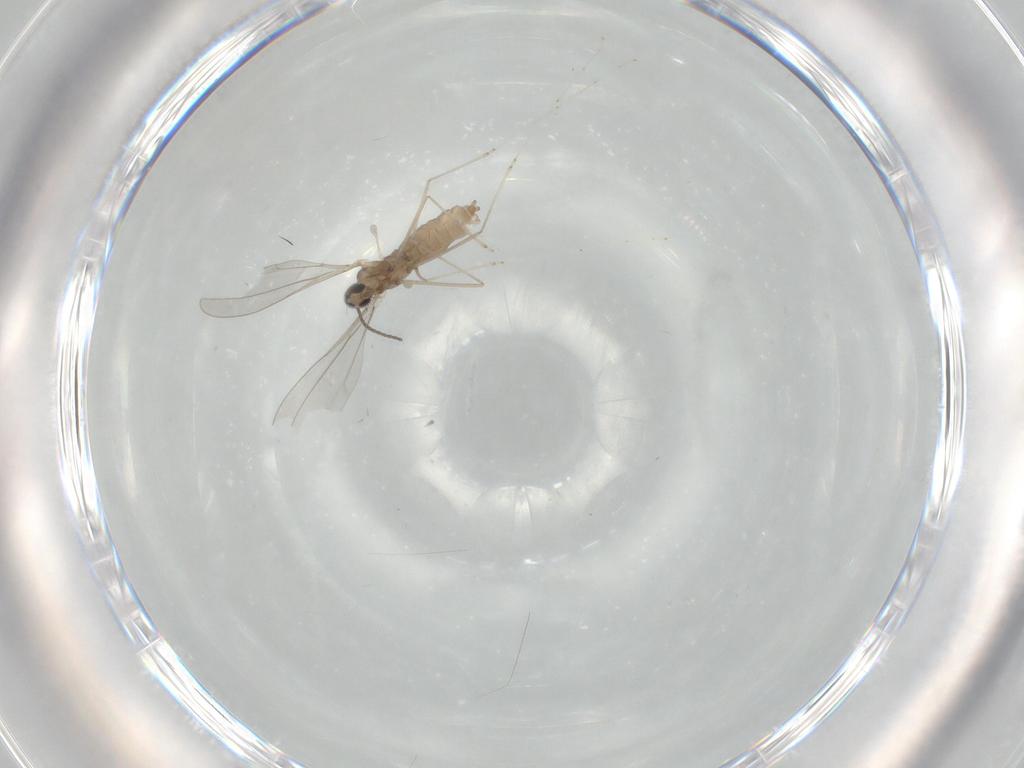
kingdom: Animalia
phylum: Arthropoda
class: Insecta
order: Diptera
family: Cecidomyiidae
